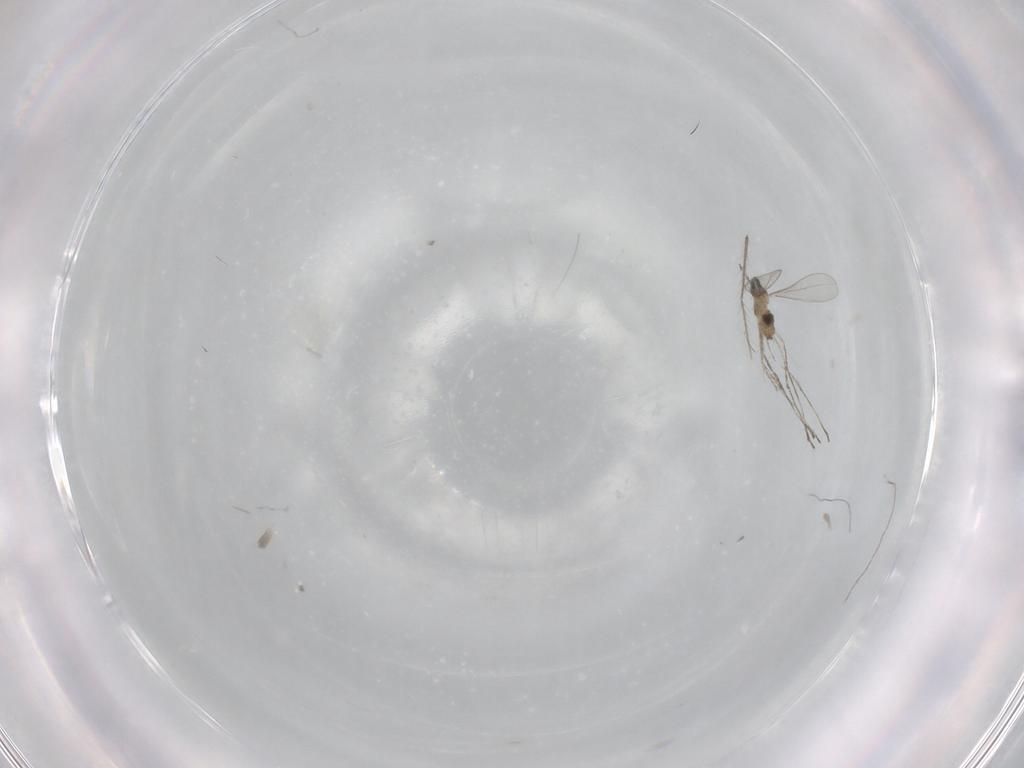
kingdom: Animalia
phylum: Arthropoda
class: Insecta
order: Diptera
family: Cecidomyiidae
